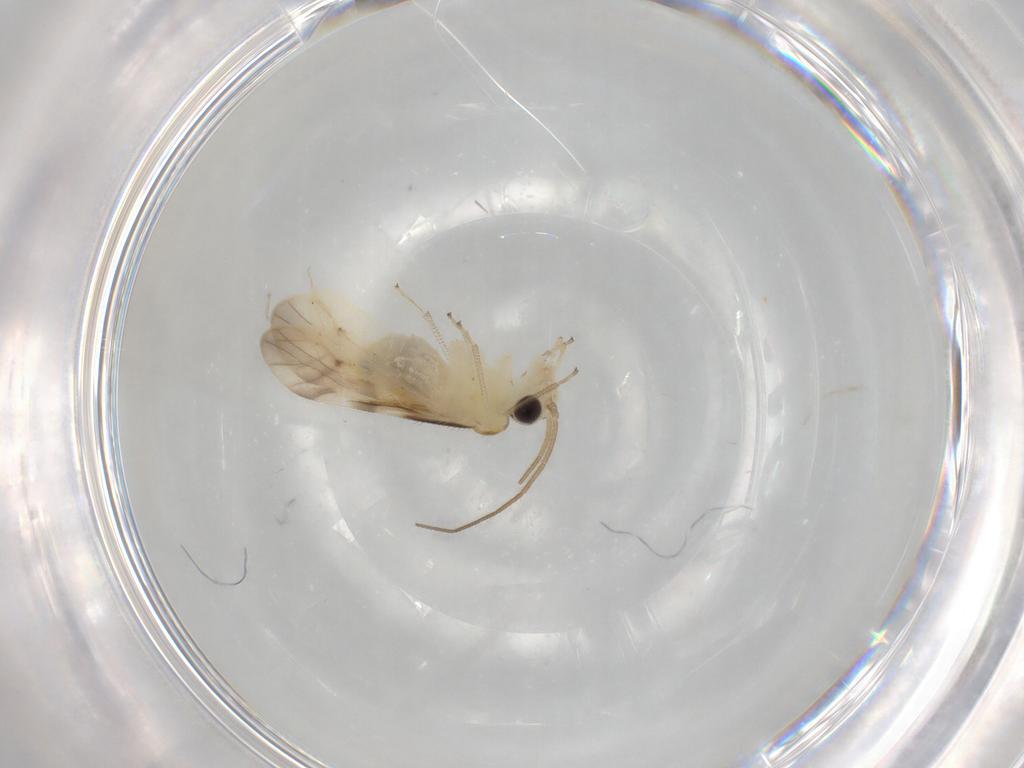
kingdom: Animalia
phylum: Arthropoda
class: Insecta
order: Psocodea
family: Caeciliusidae
